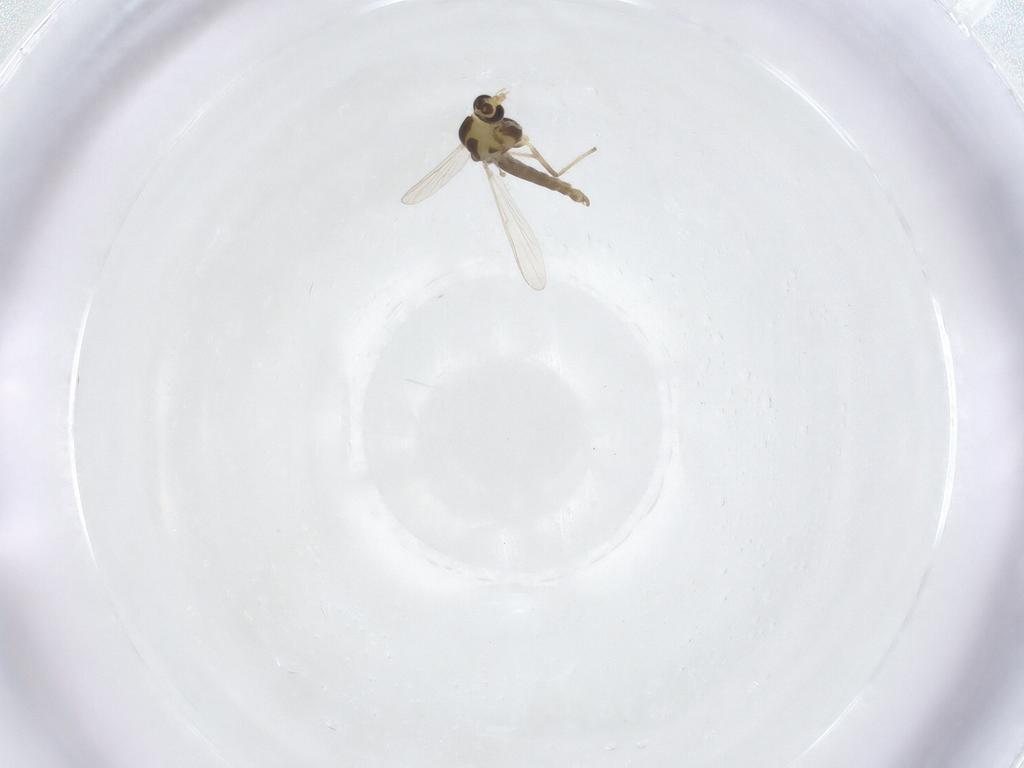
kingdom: Animalia
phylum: Arthropoda
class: Insecta
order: Diptera
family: Chironomidae
